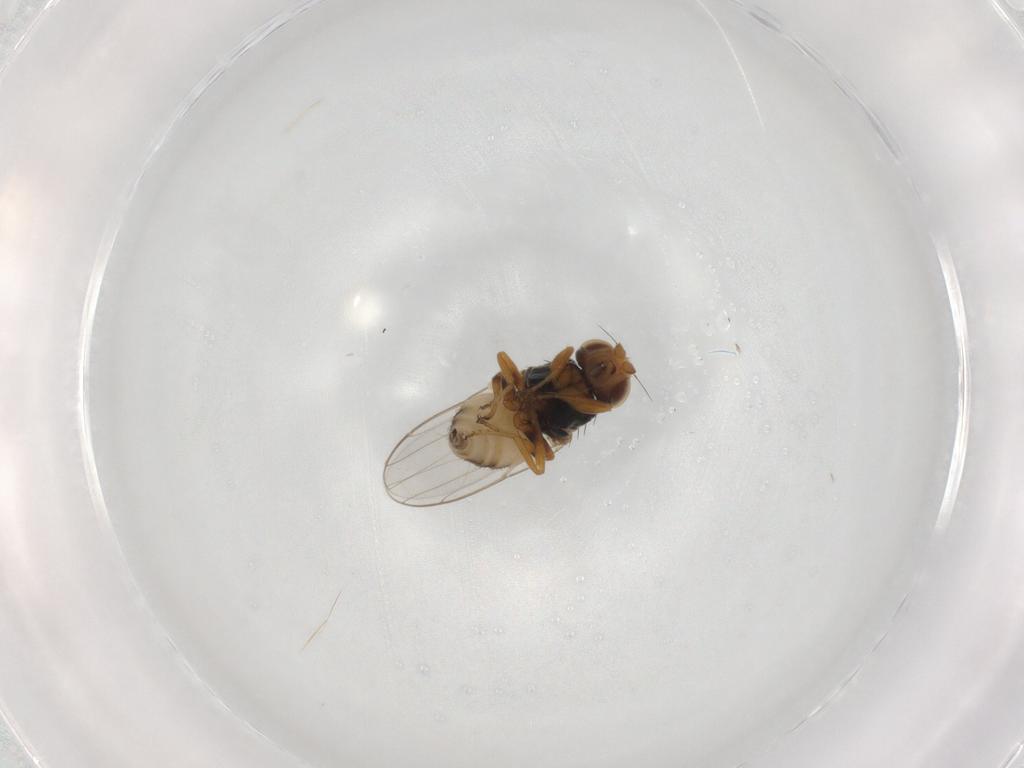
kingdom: Animalia
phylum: Arthropoda
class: Insecta
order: Diptera
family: Chloropidae
